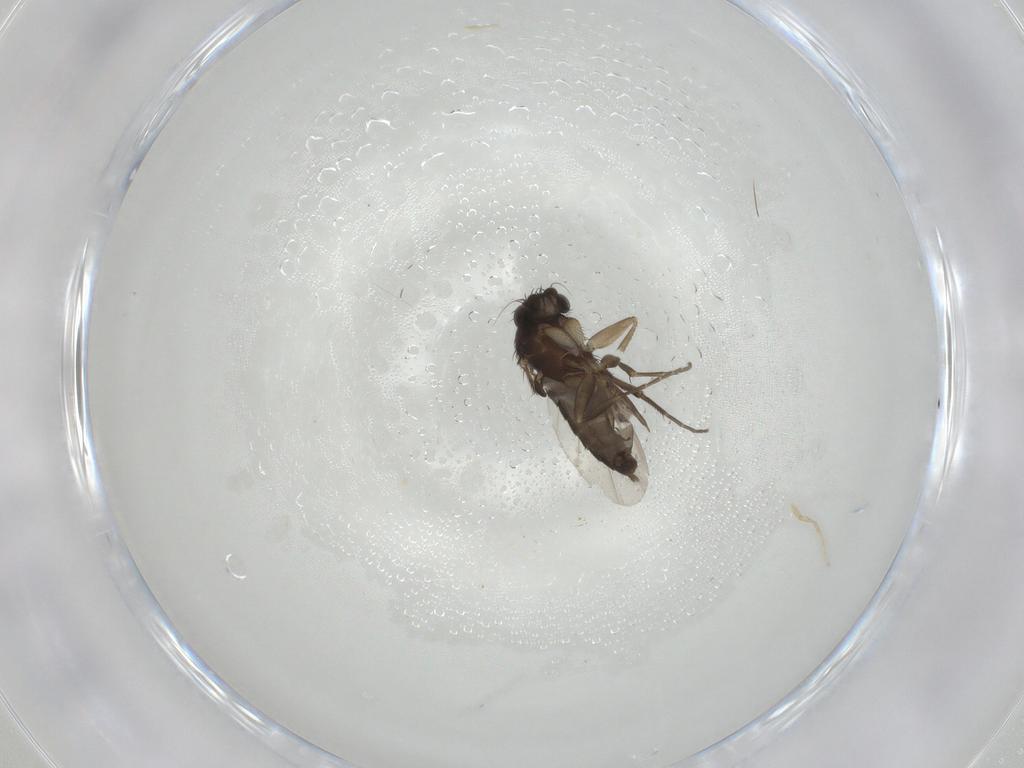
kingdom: Animalia
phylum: Arthropoda
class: Insecta
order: Diptera
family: Phoridae
